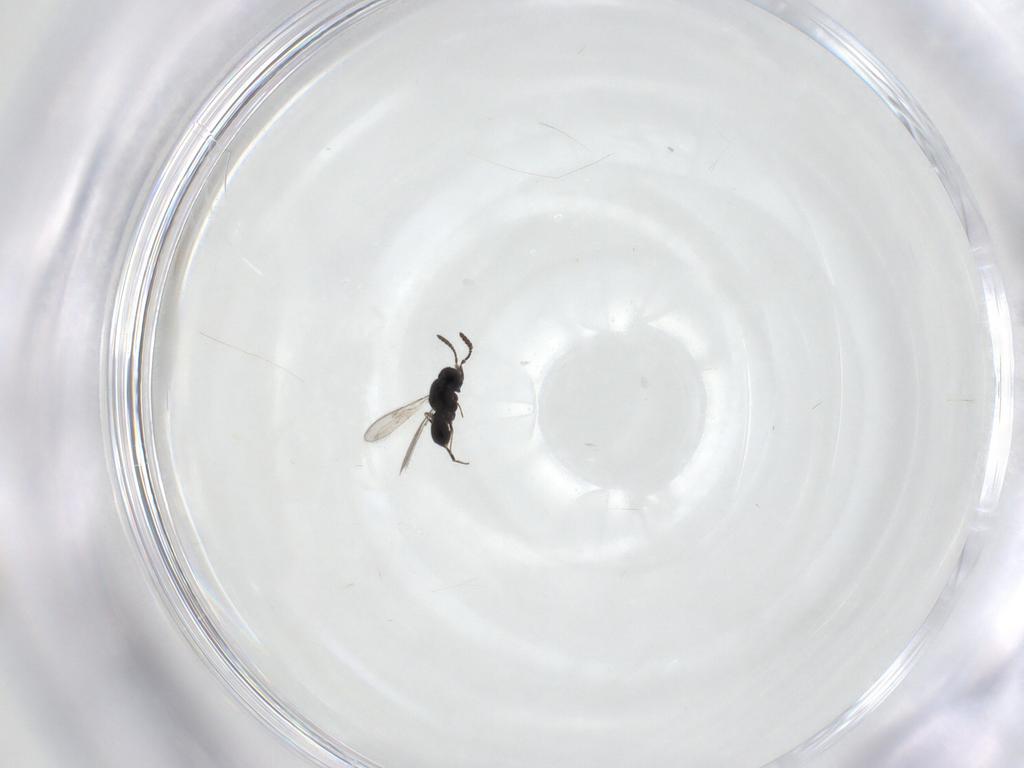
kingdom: Animalia
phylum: Arthropoda
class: Insecta
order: Hymenoptera
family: Scelionidae
